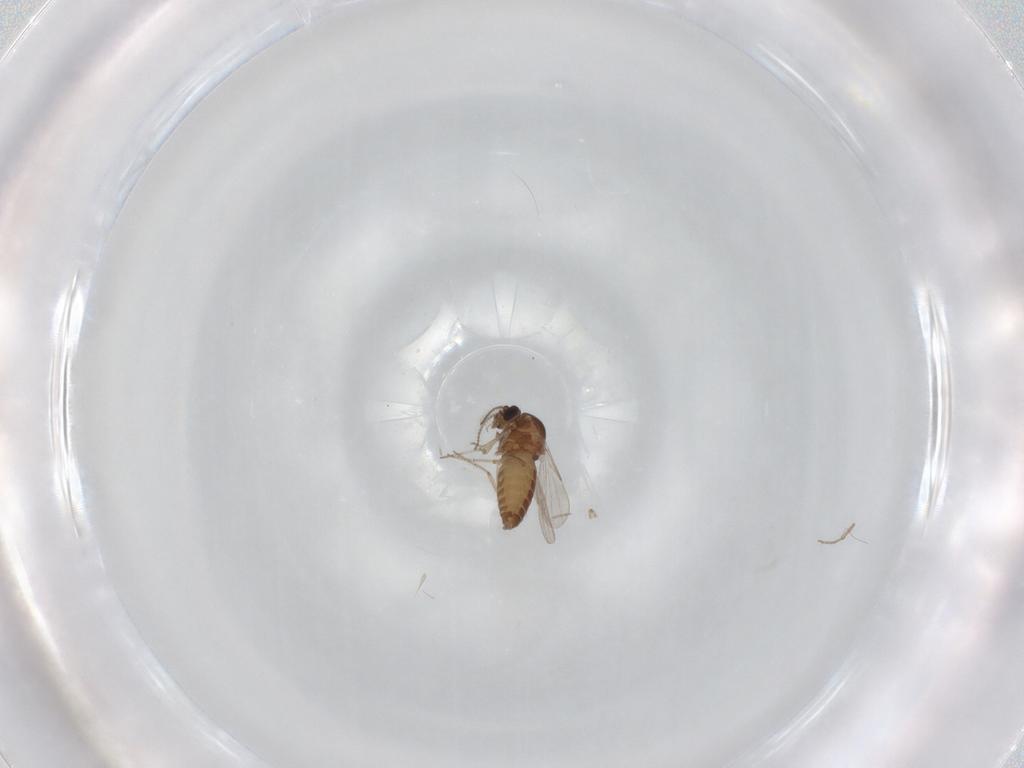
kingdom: Animalia
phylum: Arthropoda
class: Insecta
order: Diptera
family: Ceratopogonidae
